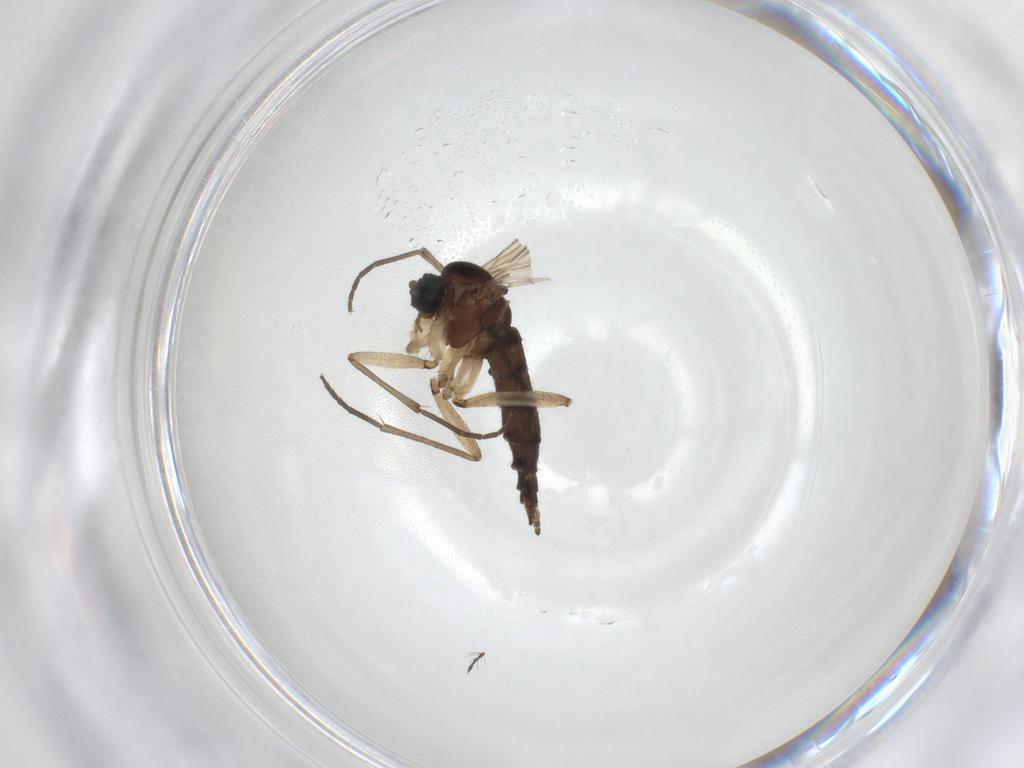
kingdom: Animalia
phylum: Arthropoda
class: Insecta
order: Diptera
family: Sciaridae
